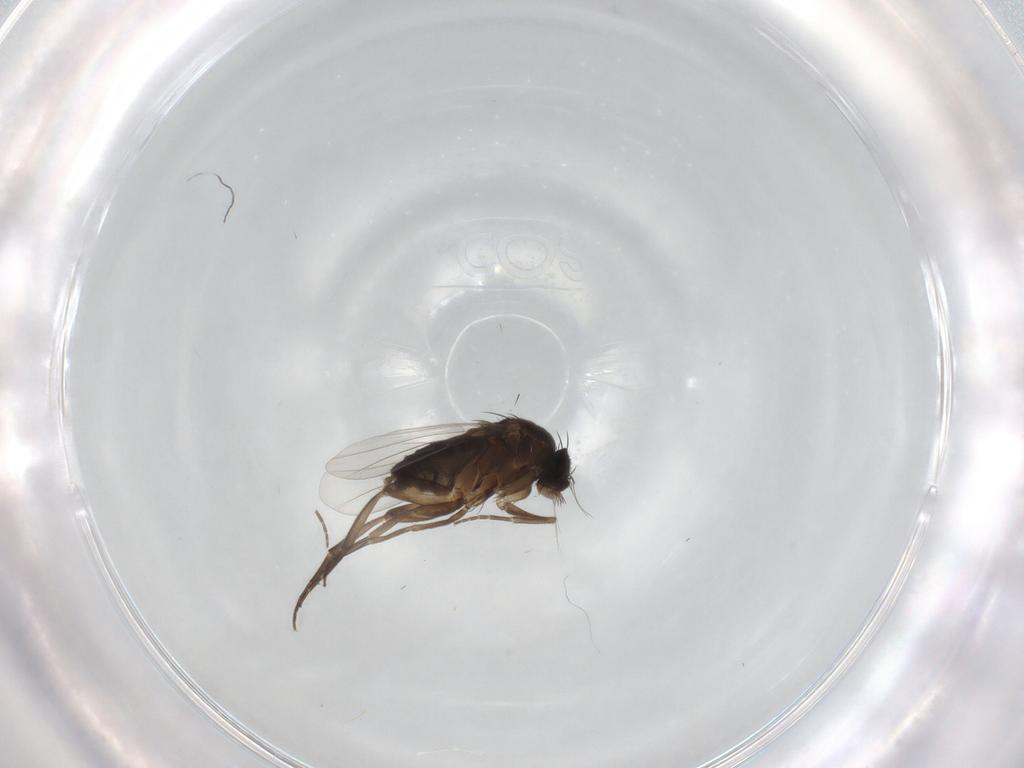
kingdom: Animalia
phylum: Arthropoda
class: Insecta
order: Diptera
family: Phoridae
